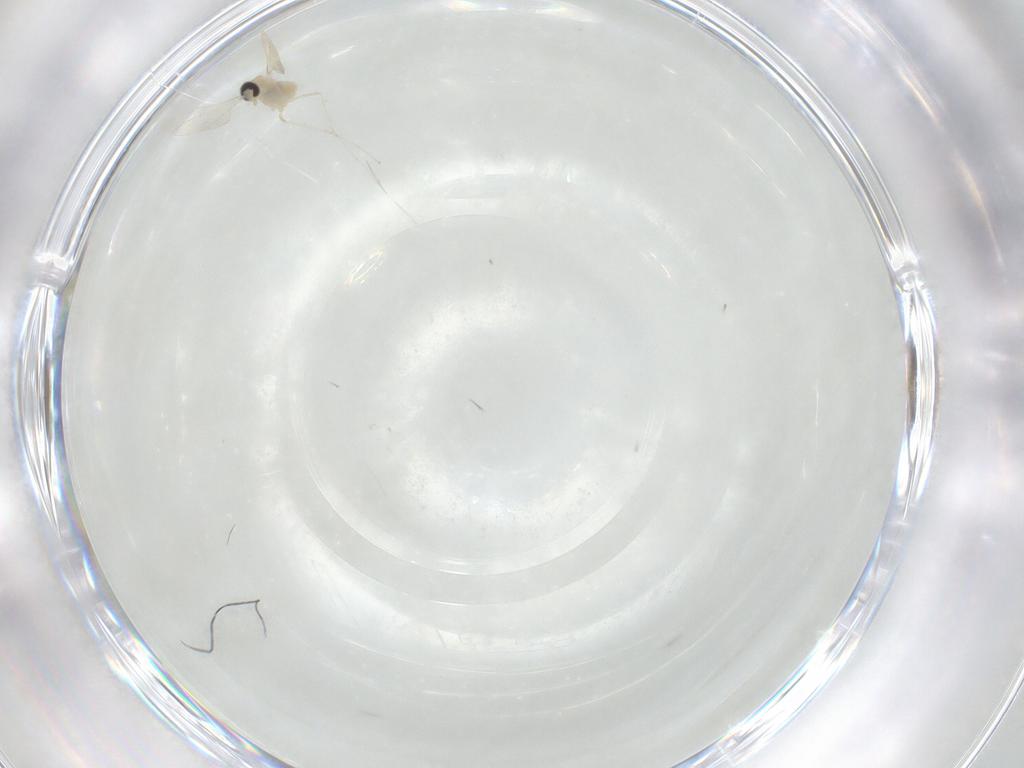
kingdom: Animalia
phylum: Arthropoda
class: Insecta
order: Diptera
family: Cecidomyiidae
